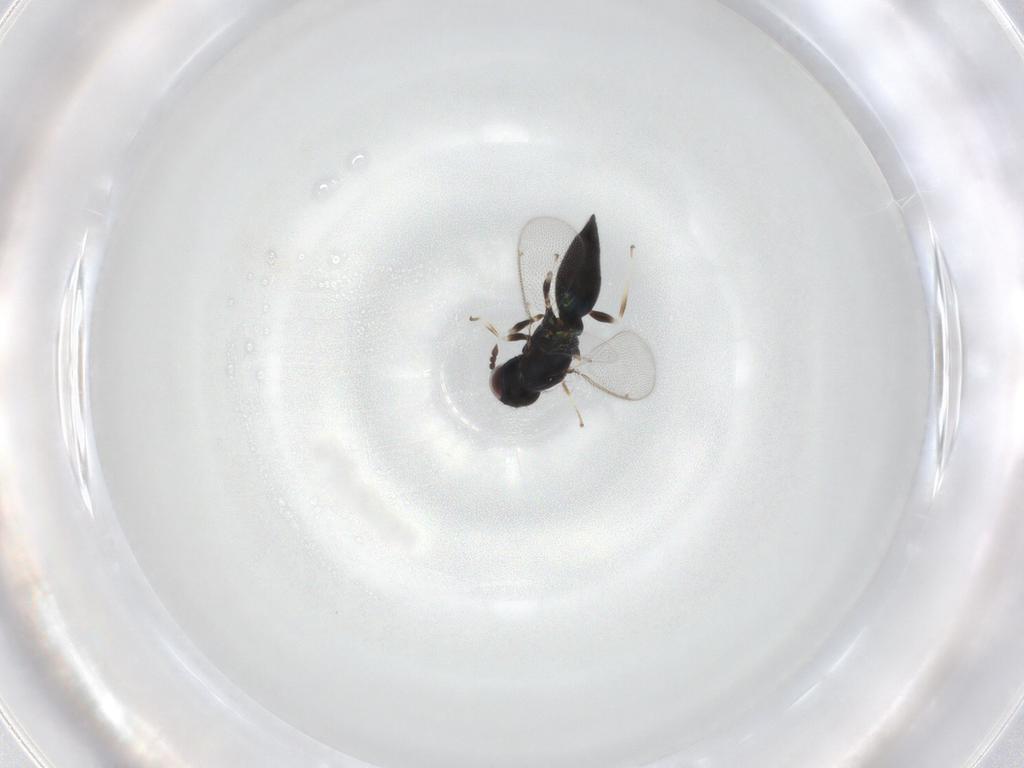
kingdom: Animalia
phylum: Arthropoda
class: Insecta
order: Hymenoptera
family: Eulophidae
